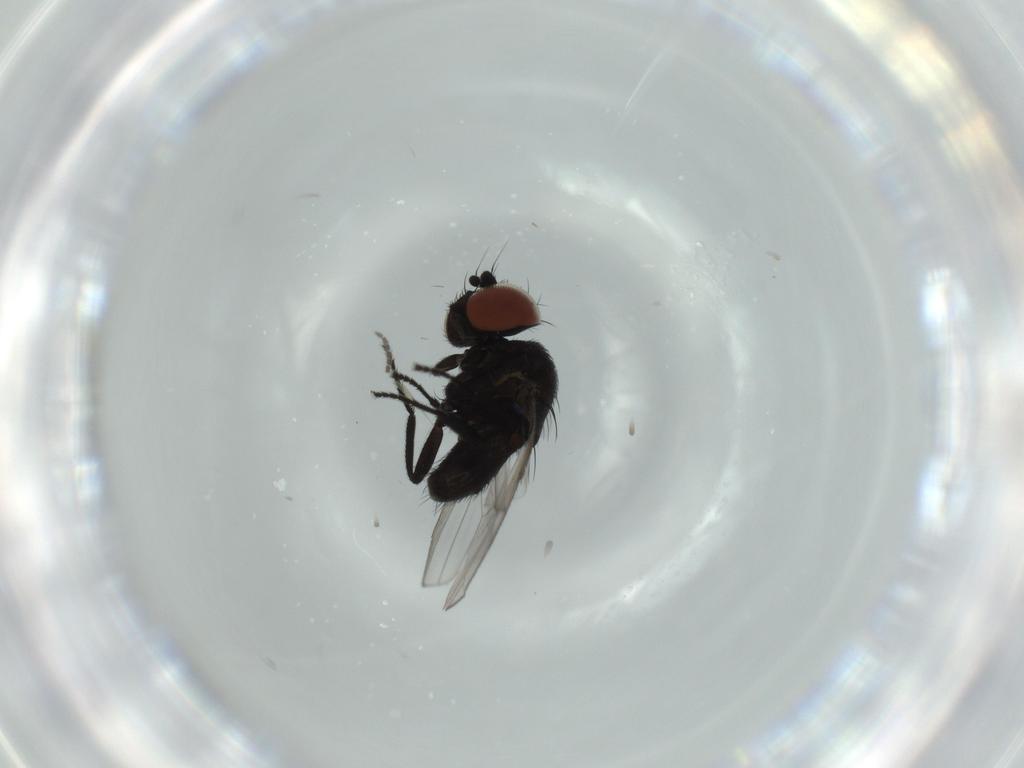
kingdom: Animalia
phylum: Arthropoda
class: Insecta
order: Diptera
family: Milichiidae
